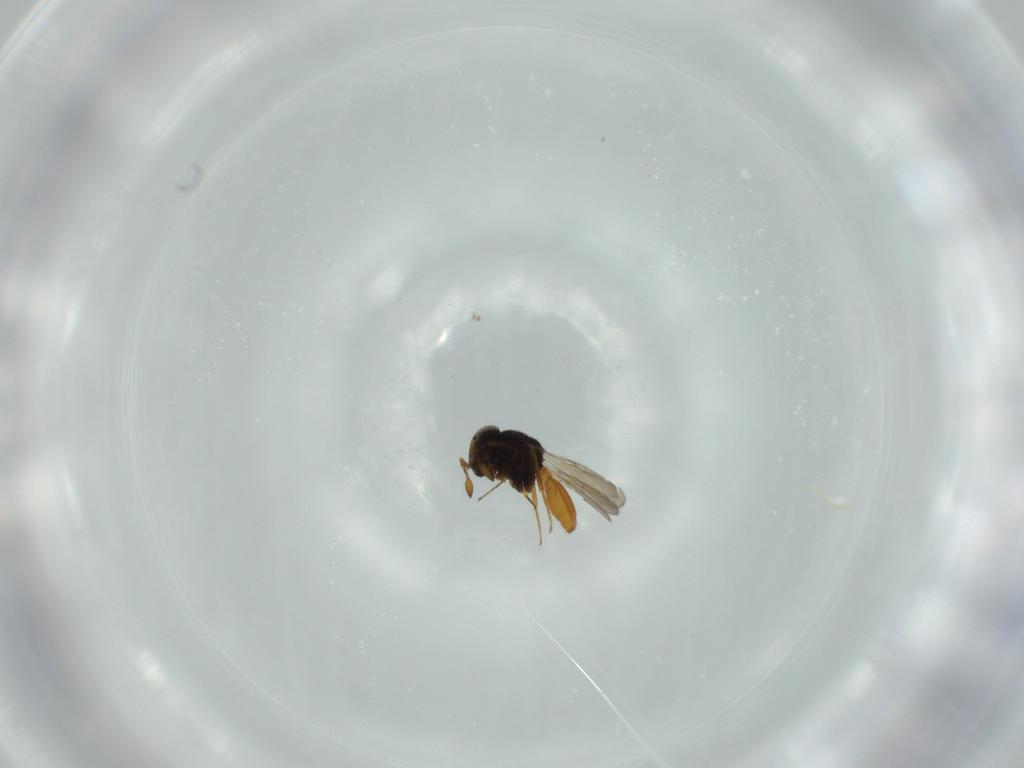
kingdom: Animalia
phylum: Arthropoda
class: Insecta
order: Hymenoptera
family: Scelionidae
